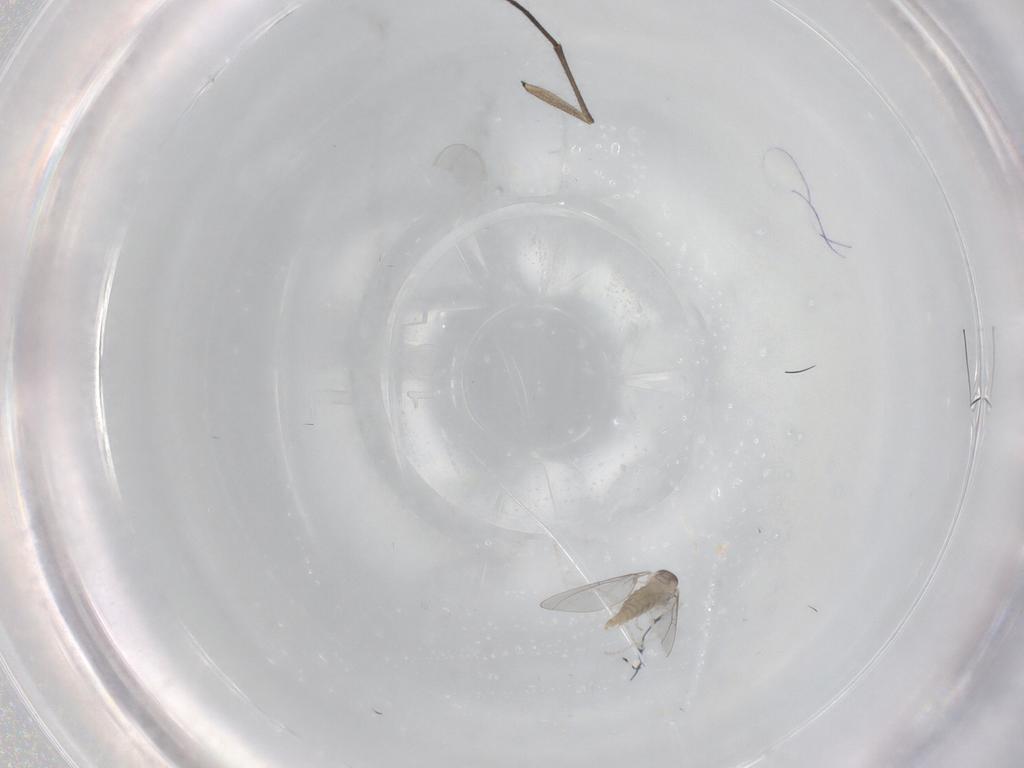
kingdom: Animalia
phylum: Arthropoda
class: Insecta
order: Diptera
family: Cecidomyiidae
